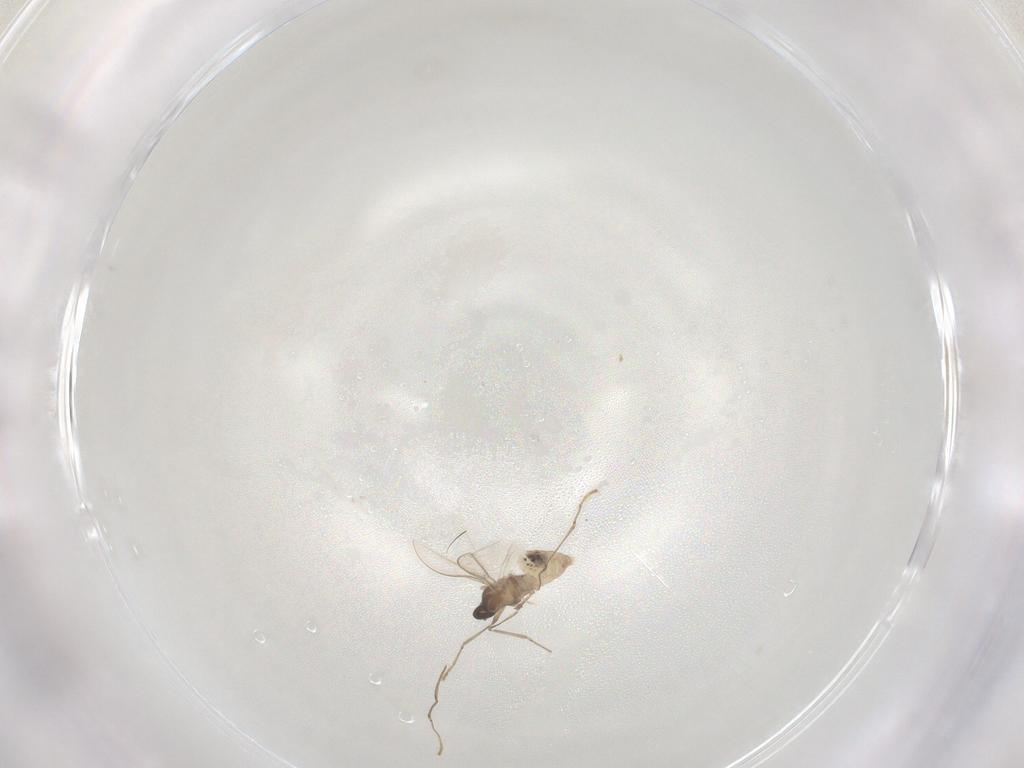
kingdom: Animalia
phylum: Arthropoda
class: Insecta
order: Diptera
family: Cecidomyiidae
